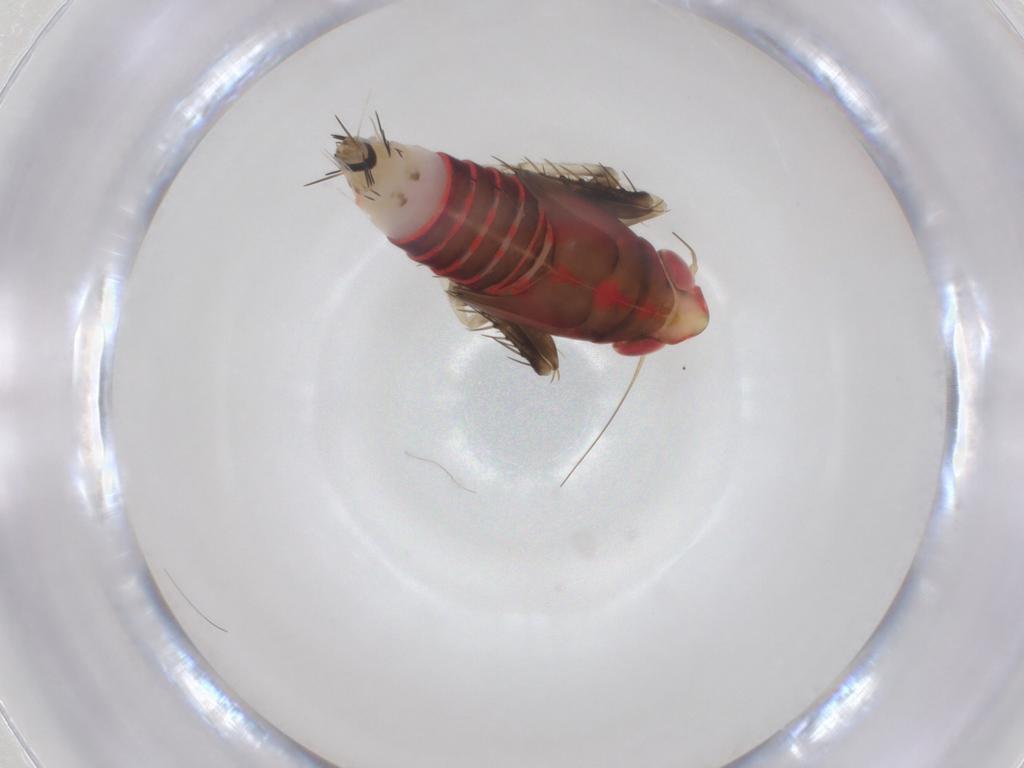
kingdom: Animalia
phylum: Arthropoda
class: Insecta
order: Hemiptera
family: Cicadellidae
